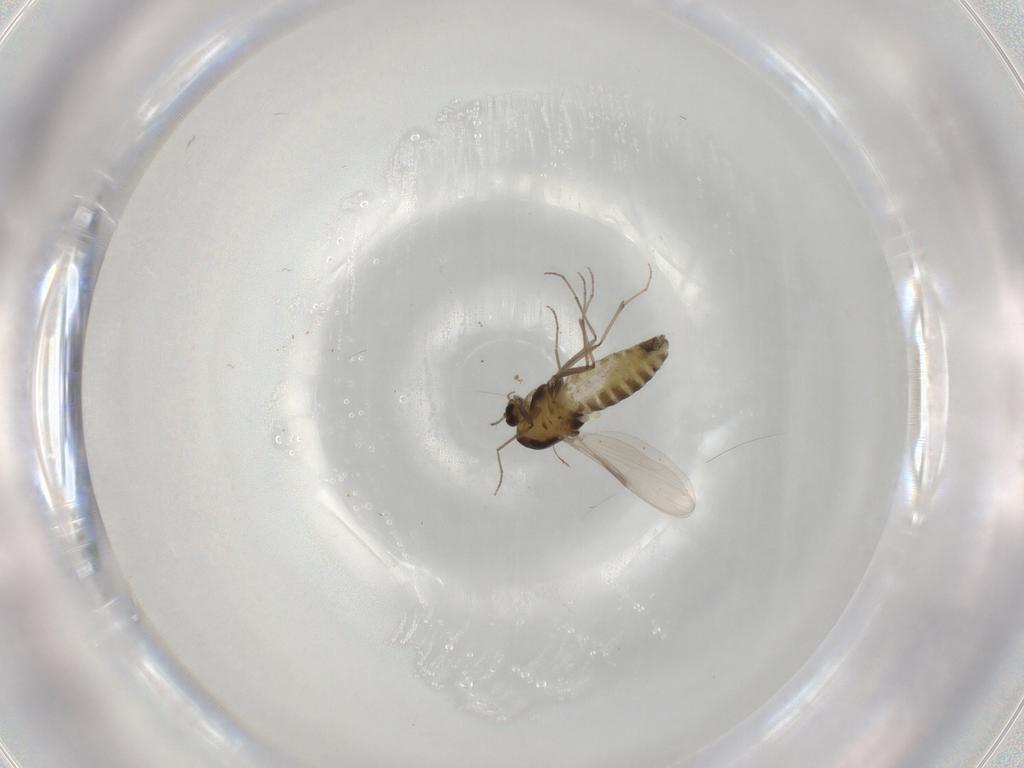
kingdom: Animalia
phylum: Arthropoda
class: Insecta
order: Diptera
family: Chironomidae
